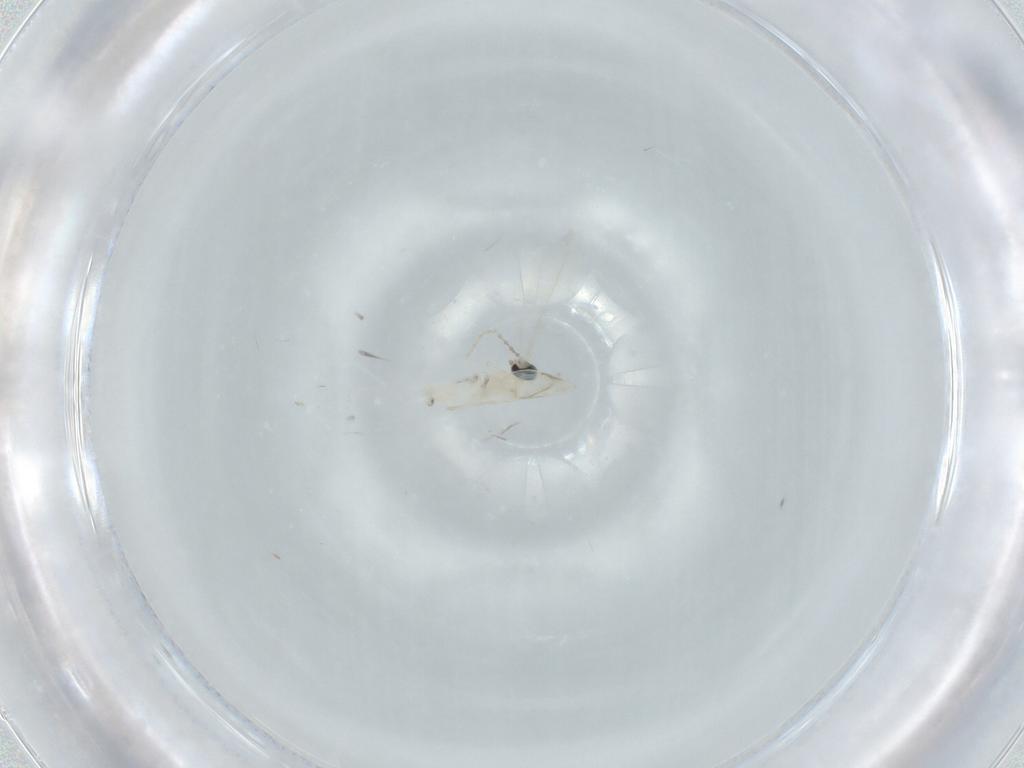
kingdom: Animalia
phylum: Arthropoda
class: Insecta
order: Diptera
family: Cecidomyiidae
